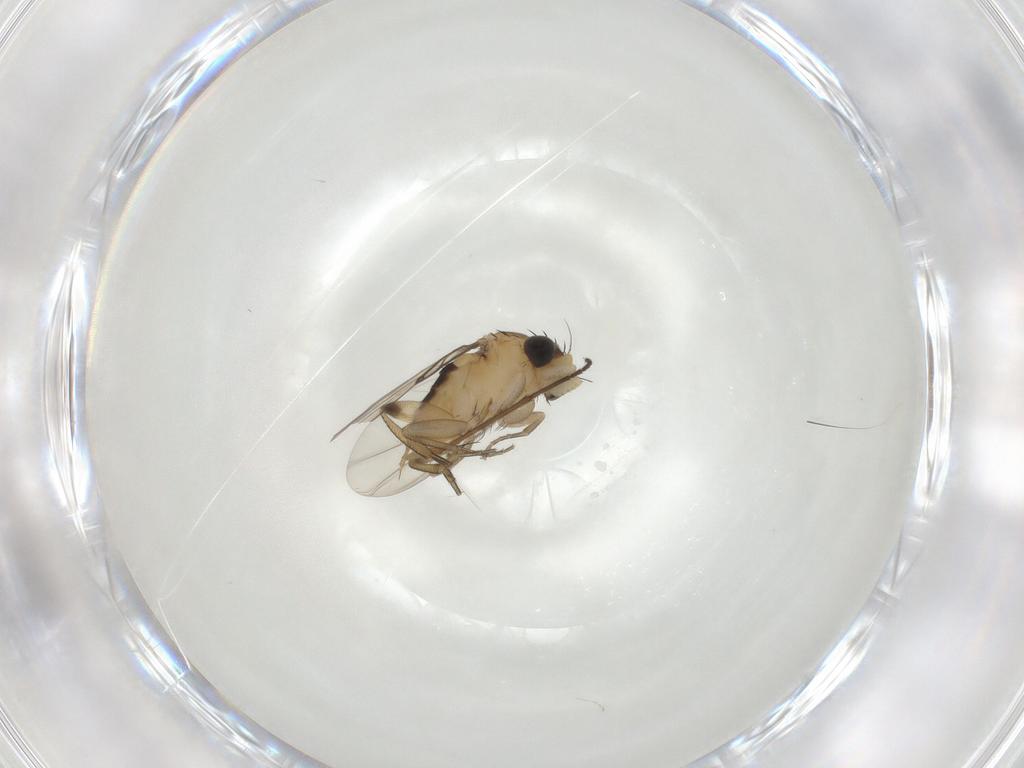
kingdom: Animalia
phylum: Arthropoda
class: Insecta
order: Diptera
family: Phoridae
